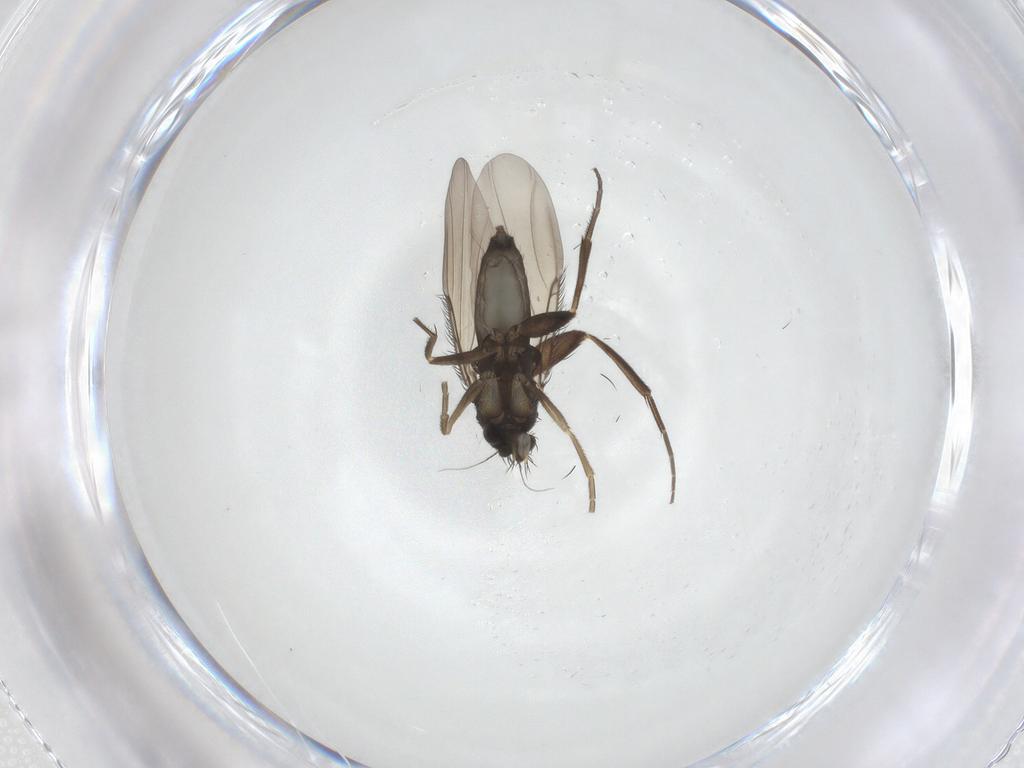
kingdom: Animalia
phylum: Arthropoda
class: Insecta
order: Diptera
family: Phoridae
